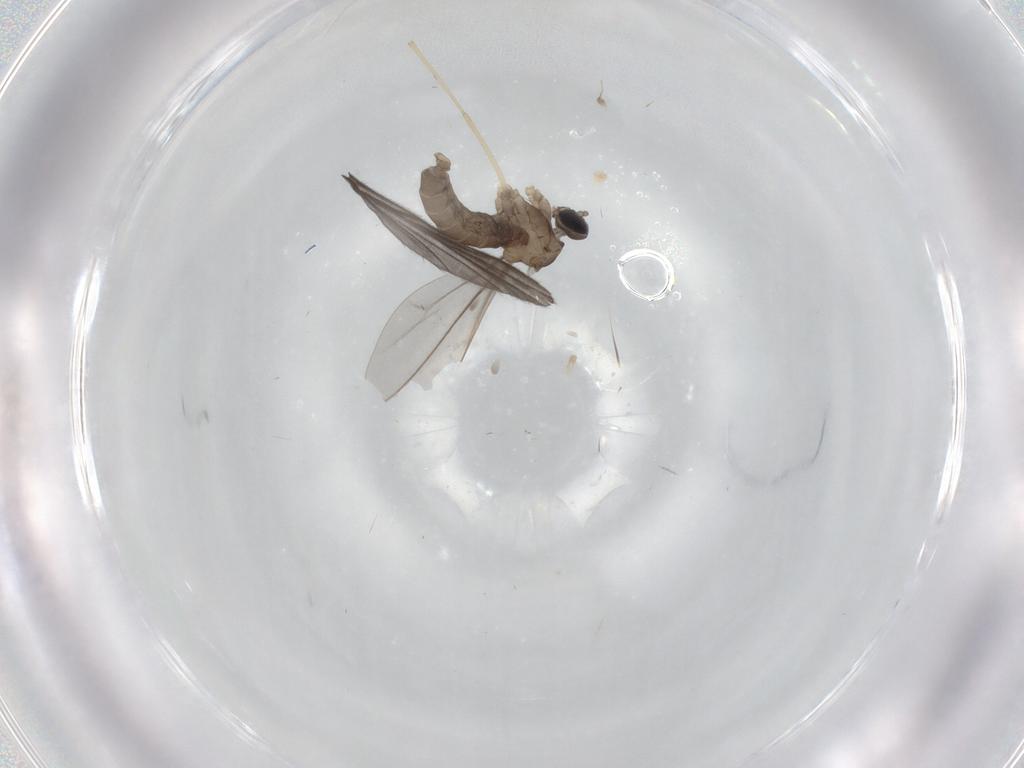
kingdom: Animalia
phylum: Arthropoda
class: Insecta
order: Diptera
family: Sciaridae
